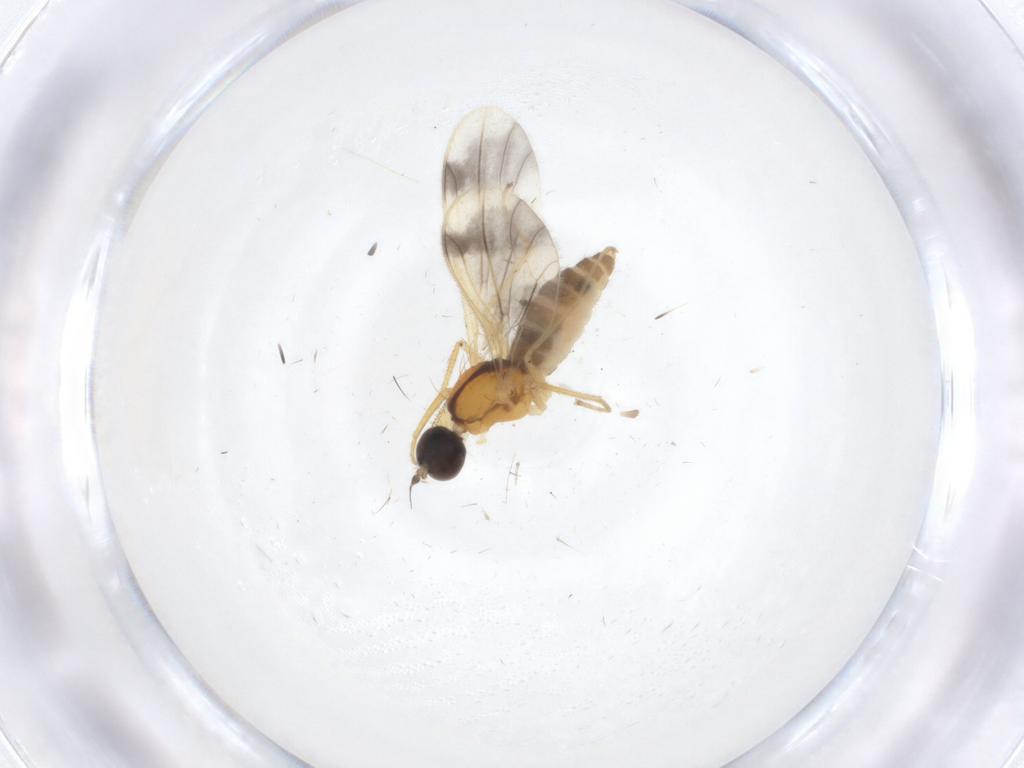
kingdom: Animalia
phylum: Arthropoda
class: Insecta
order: Diptera
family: Empididae
